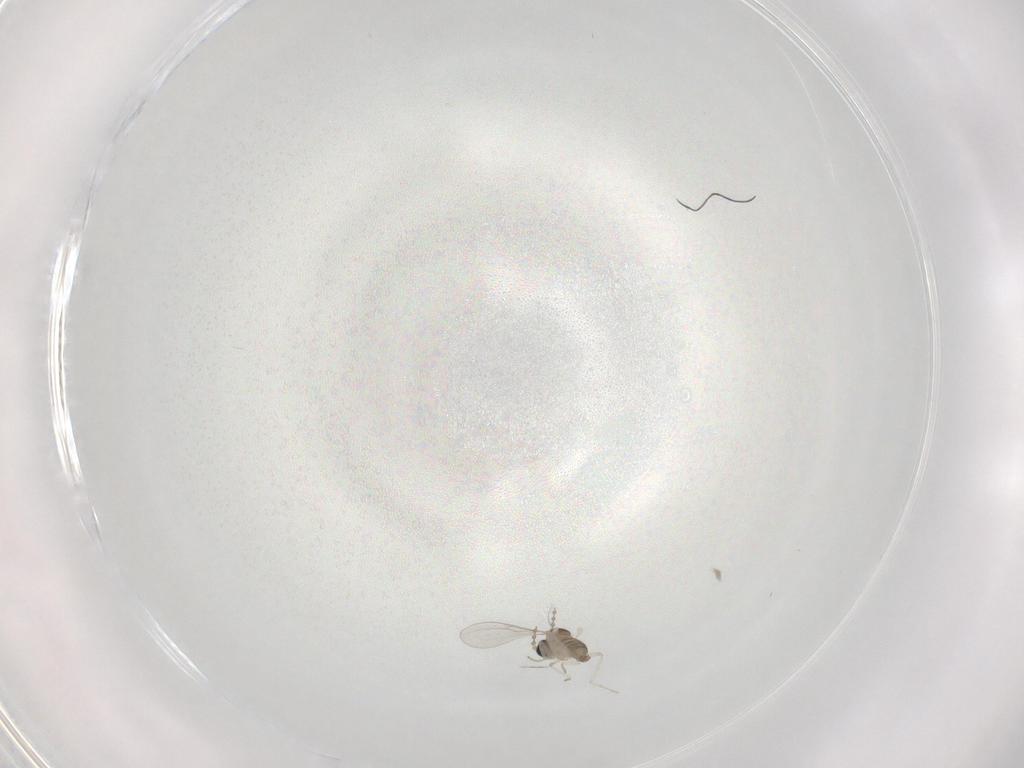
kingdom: Animalia
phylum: Arthropoda
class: Insecta
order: Diptera
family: Cecidomyiidae
